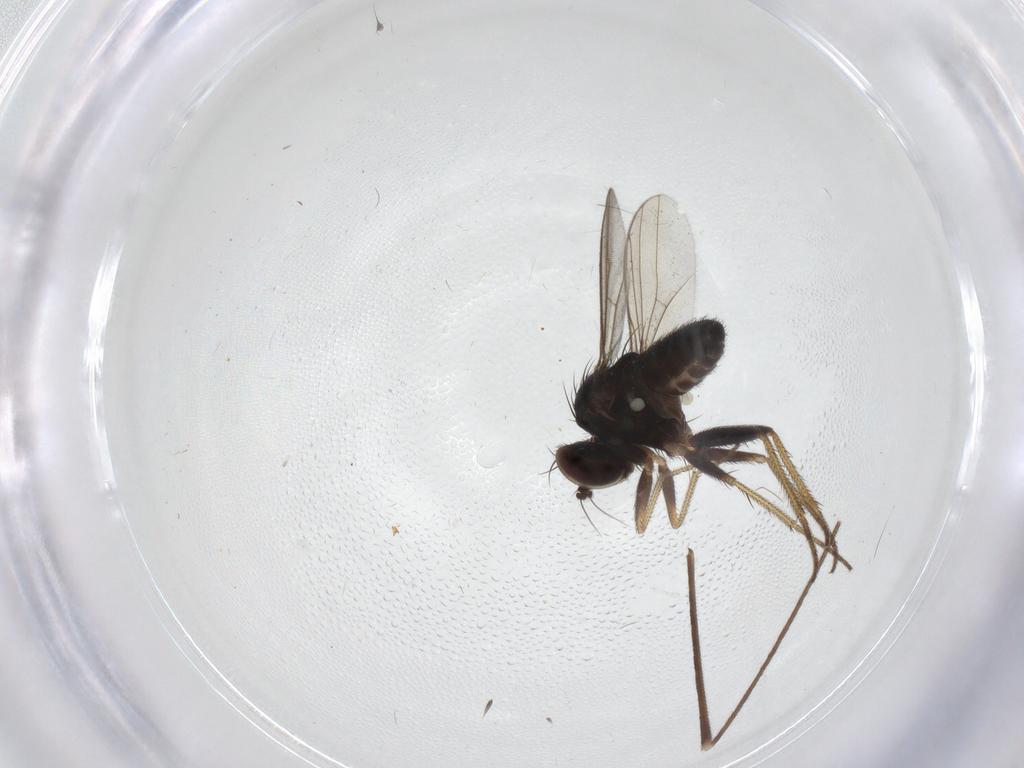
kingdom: Animalia
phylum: Arthropoda
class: Insecta
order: Diptera
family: Limoniidae
